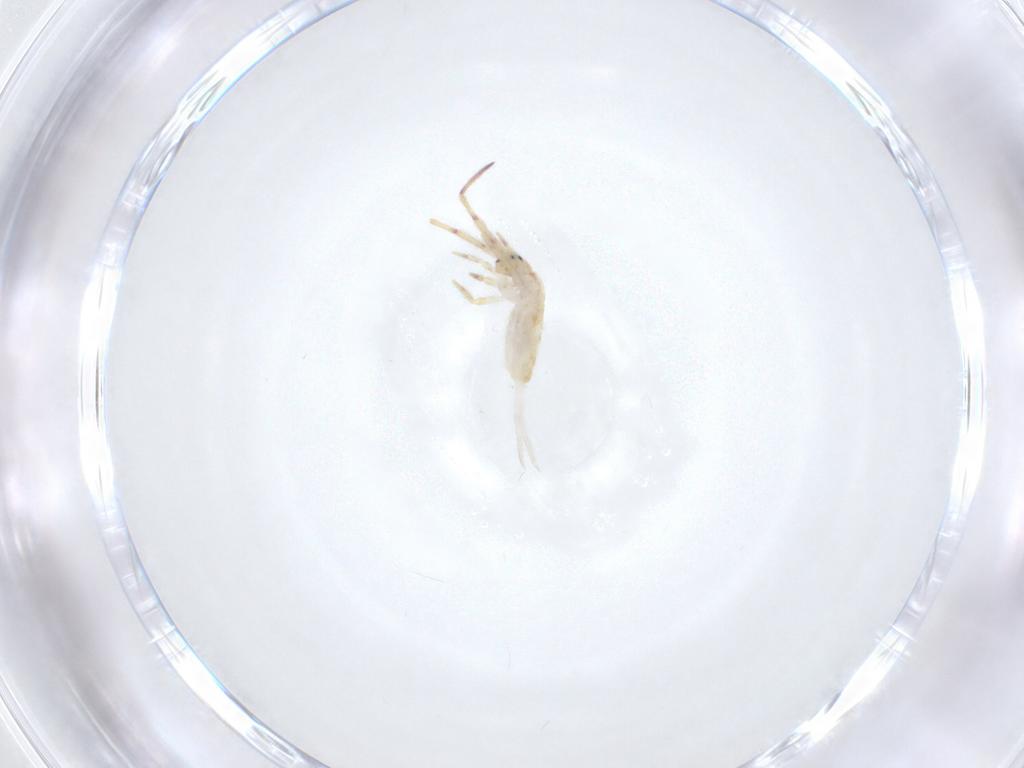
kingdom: Animalia
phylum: Arthropoda
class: Collembola
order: Entomobryomorpha
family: Entomobryidae
